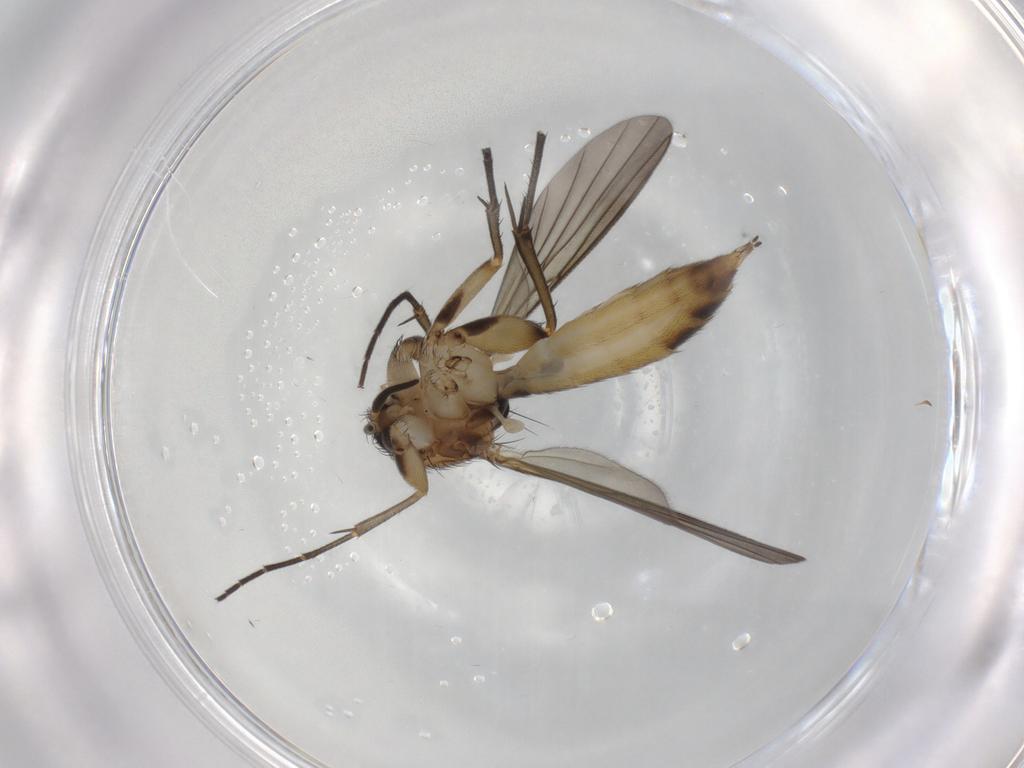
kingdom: Animalia
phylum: Arthropoda
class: Insecta
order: Diptera
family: Mycetophilidae
